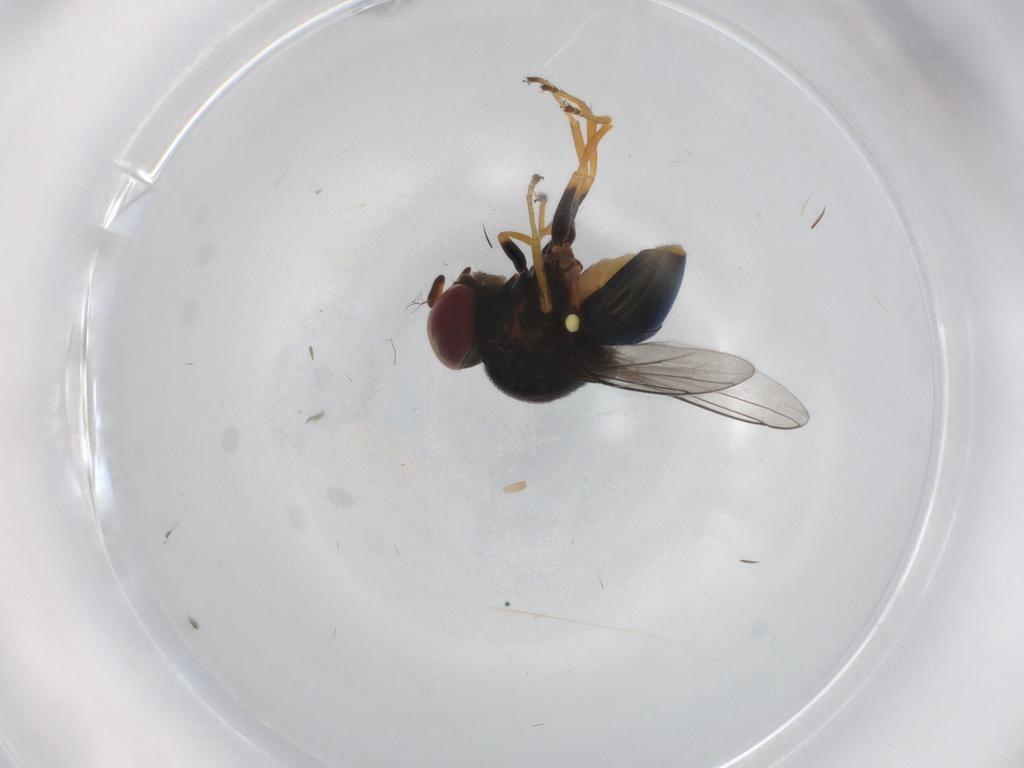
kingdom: Animalia
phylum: Arthropoda
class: Insecta
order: Diptera
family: Chloropidae
